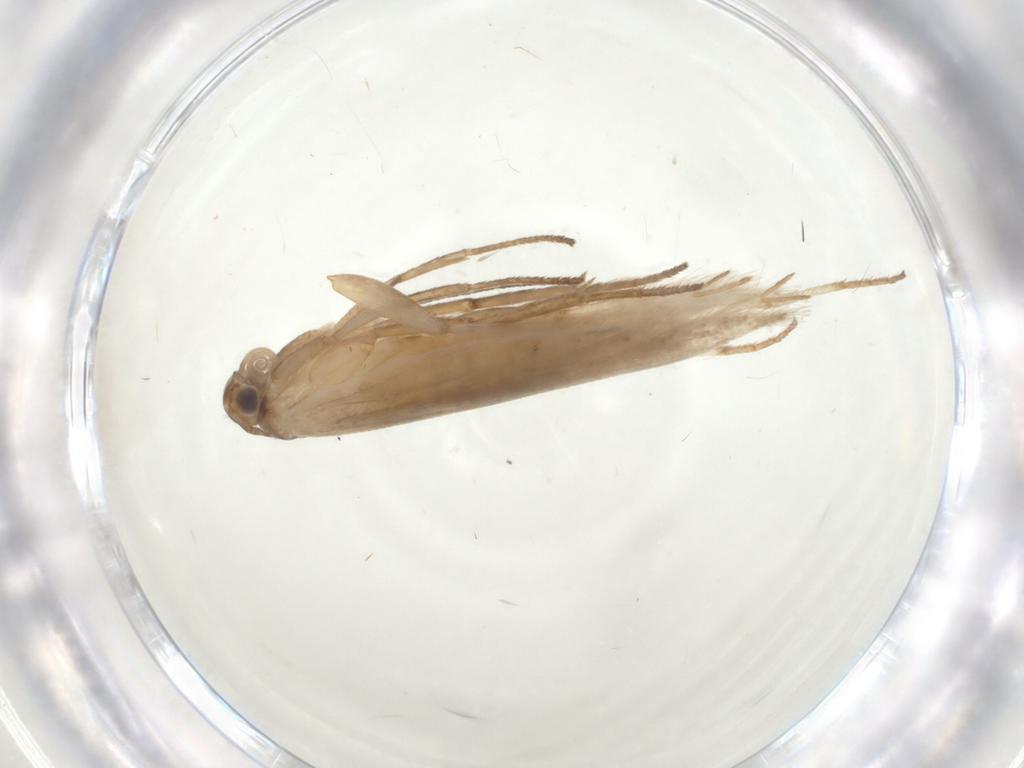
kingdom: Animalia
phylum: Arthropoda
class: Insecta
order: Lepidoptera
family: Gelechiidae
